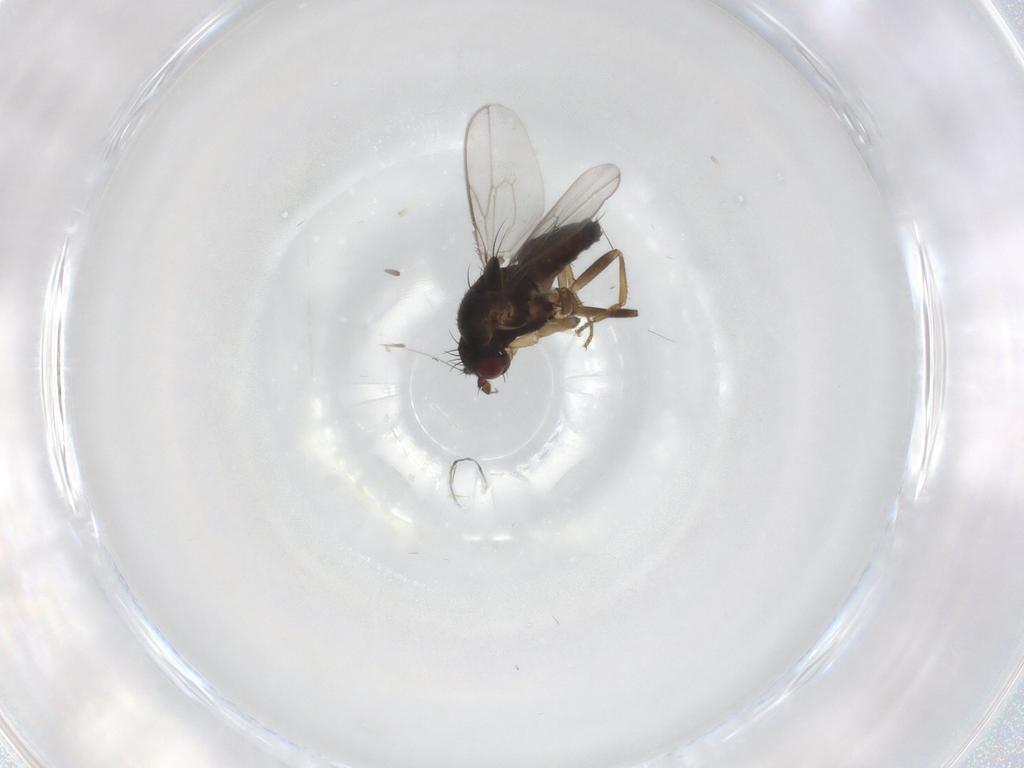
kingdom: Animalia
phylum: Arthropoda
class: Insecta
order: Diptera
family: Sphaeroceridae
